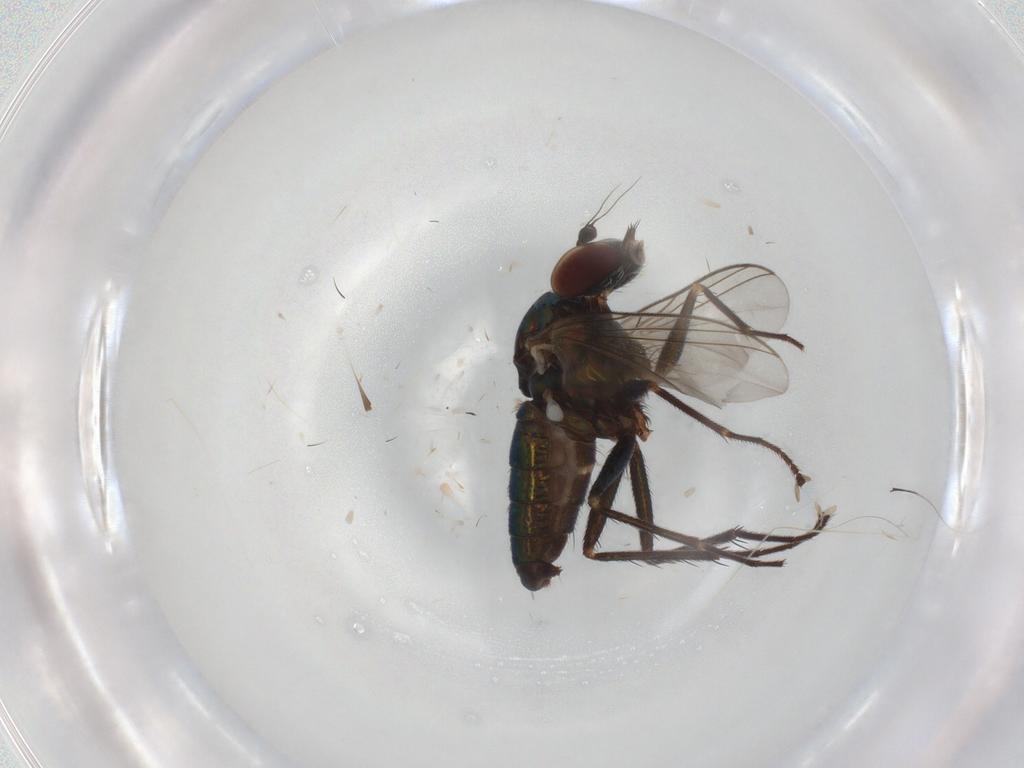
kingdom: Animalia
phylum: Arthropoda
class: Insecta
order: Diptera
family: Dolichopodidae
